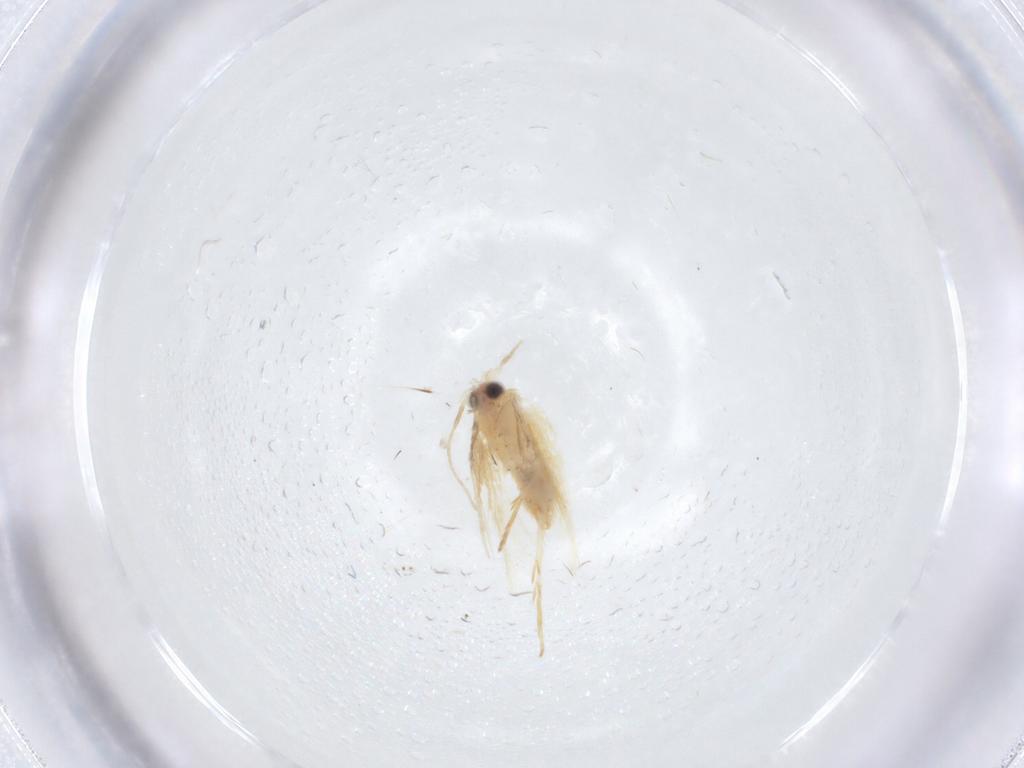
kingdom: Animalia
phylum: Arthropoda
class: Insecta
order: Lepidoptera
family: Nepticulidae
